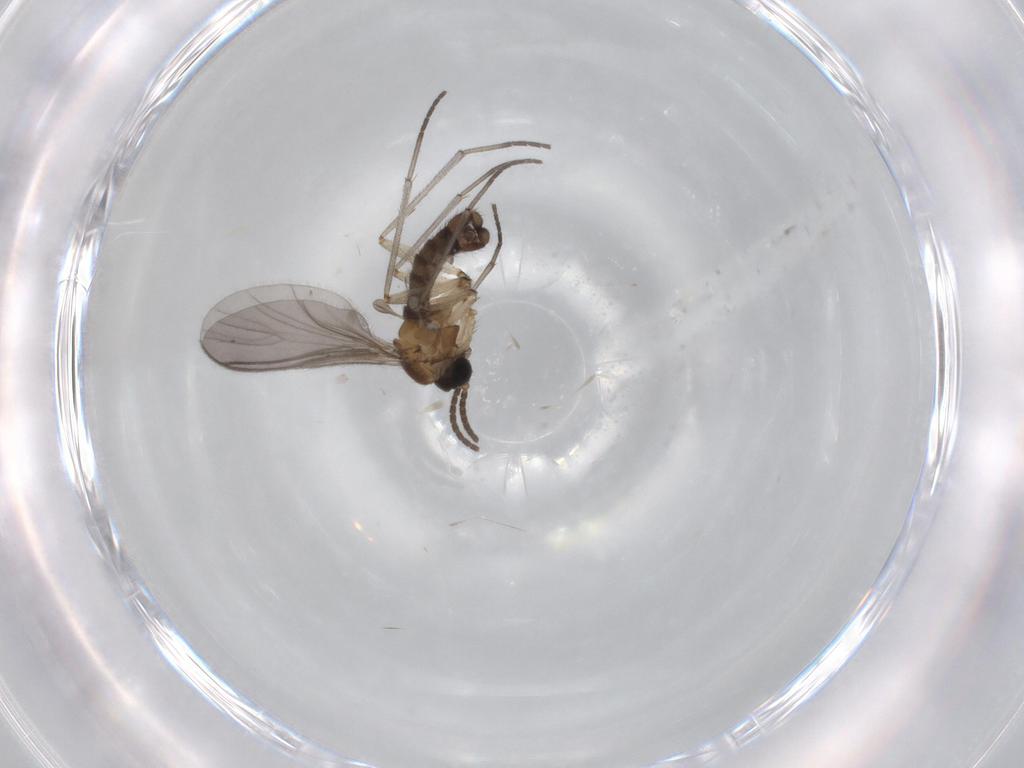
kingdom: Animalia
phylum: Arthropoda
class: Insecta
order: Diptera
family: Sciaridae
